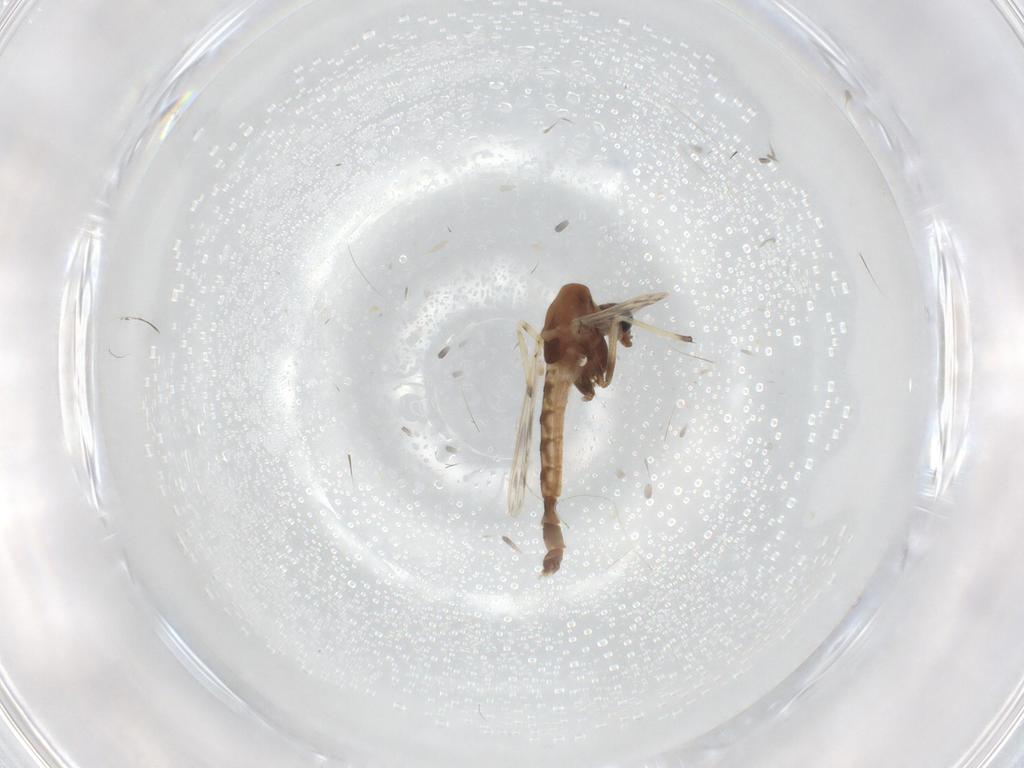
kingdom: Animalia
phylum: Arthropoda
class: Insecta
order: Diptera
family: Chironomidae
